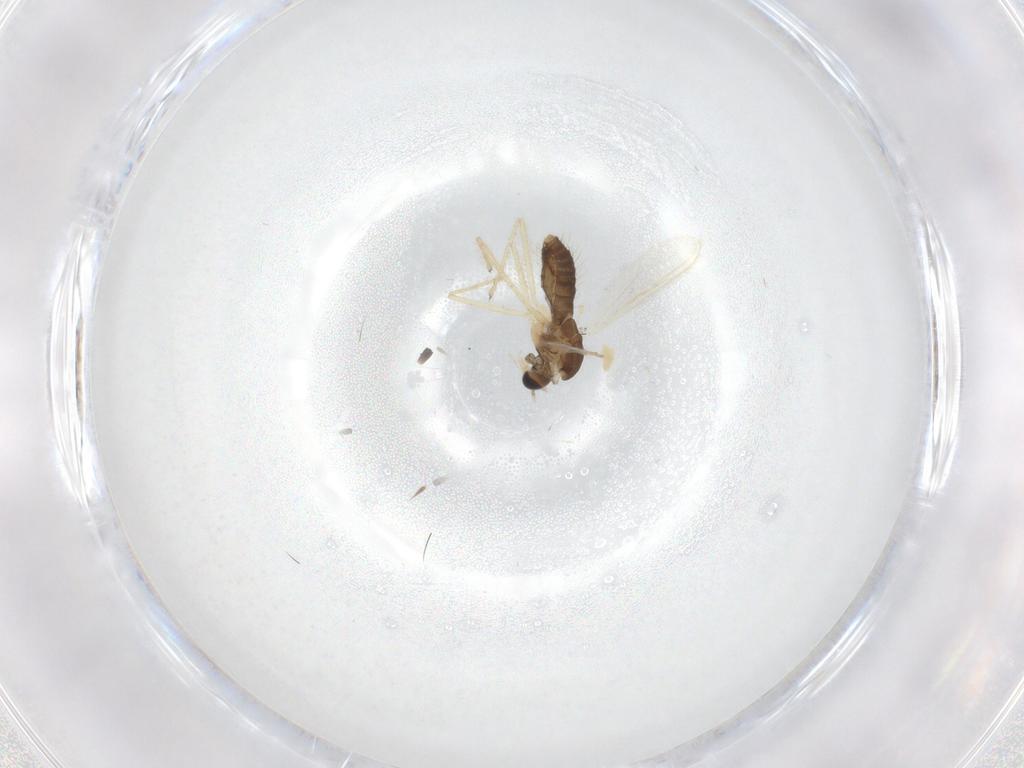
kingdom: Animalia
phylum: Arthropoda
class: Insecta
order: Diptera
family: Chironomidae
